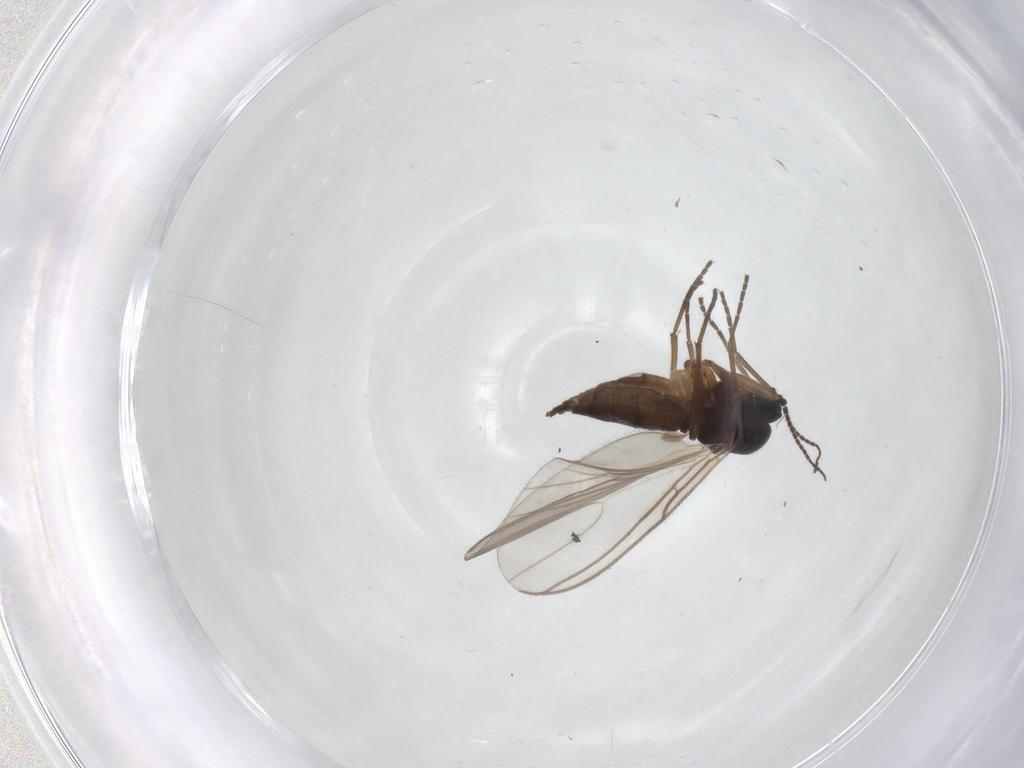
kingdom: Animalia
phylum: Arthropoda
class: Insecta
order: Diptera
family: Sciaridae
